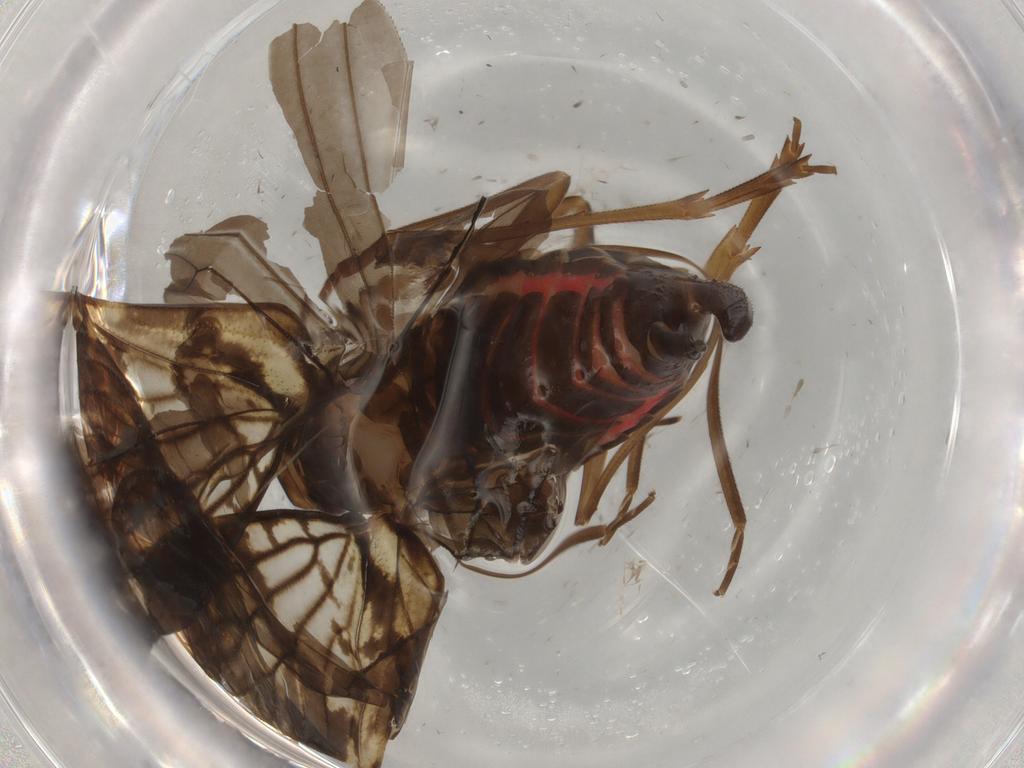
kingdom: Animalia
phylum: Arthropoda
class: Insecta
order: Hemiptera
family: Cixiidae
